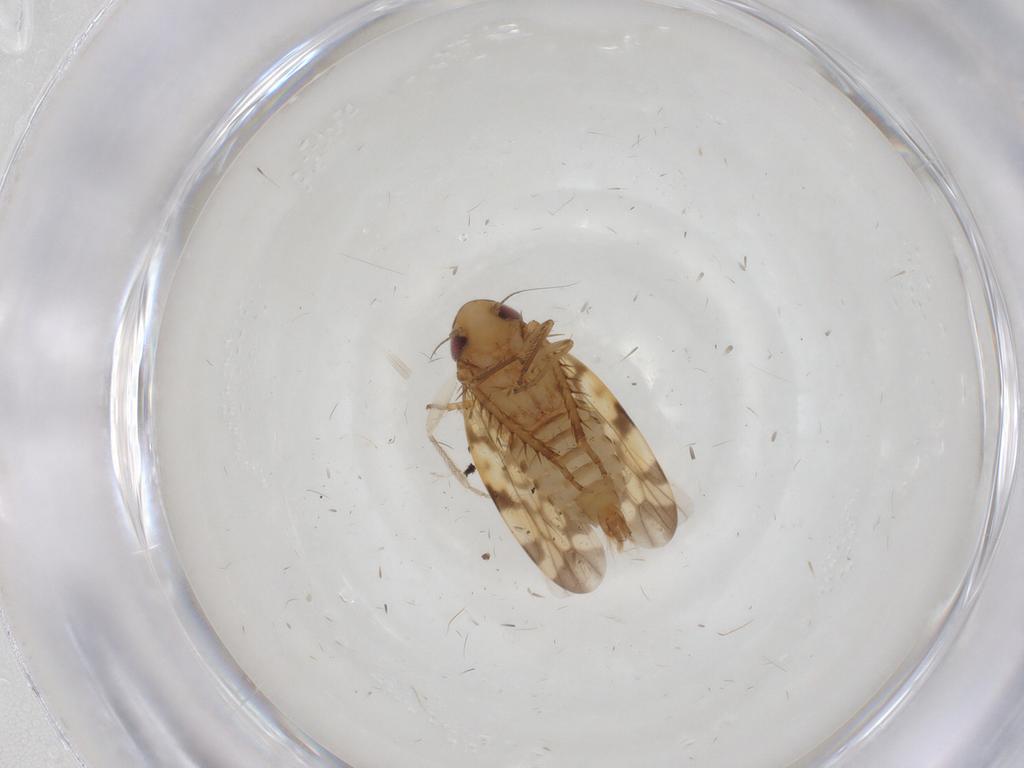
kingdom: Animalia
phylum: Arthropoda
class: Insecta
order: Hemiptera
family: Cicadellidae
